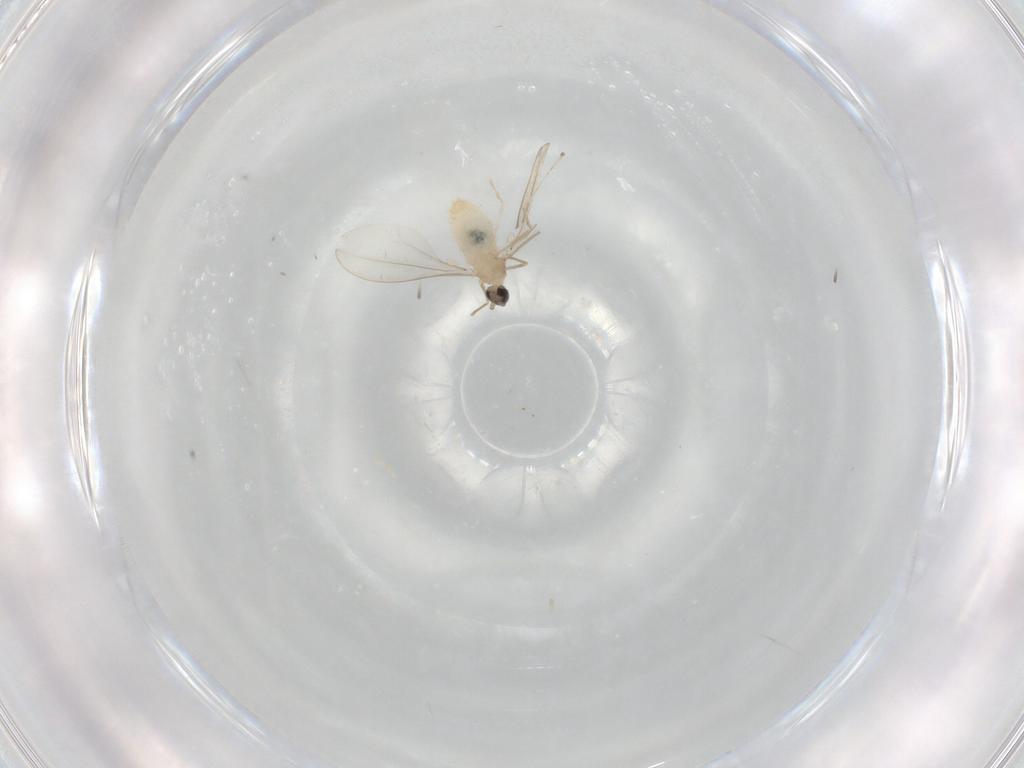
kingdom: Animalia
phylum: Arthropoda
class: Insecta
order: Diptera
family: Cecidomyiidae
